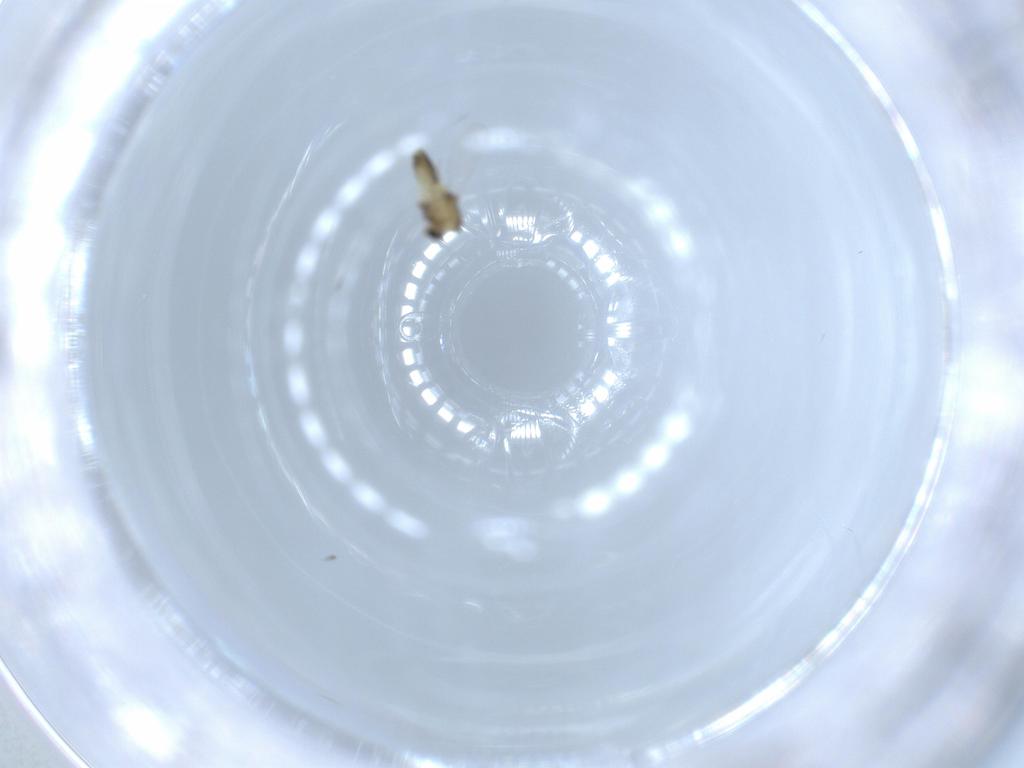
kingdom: Animalia
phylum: Arthropoda
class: Insecta
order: Diptera
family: Chironomidae
